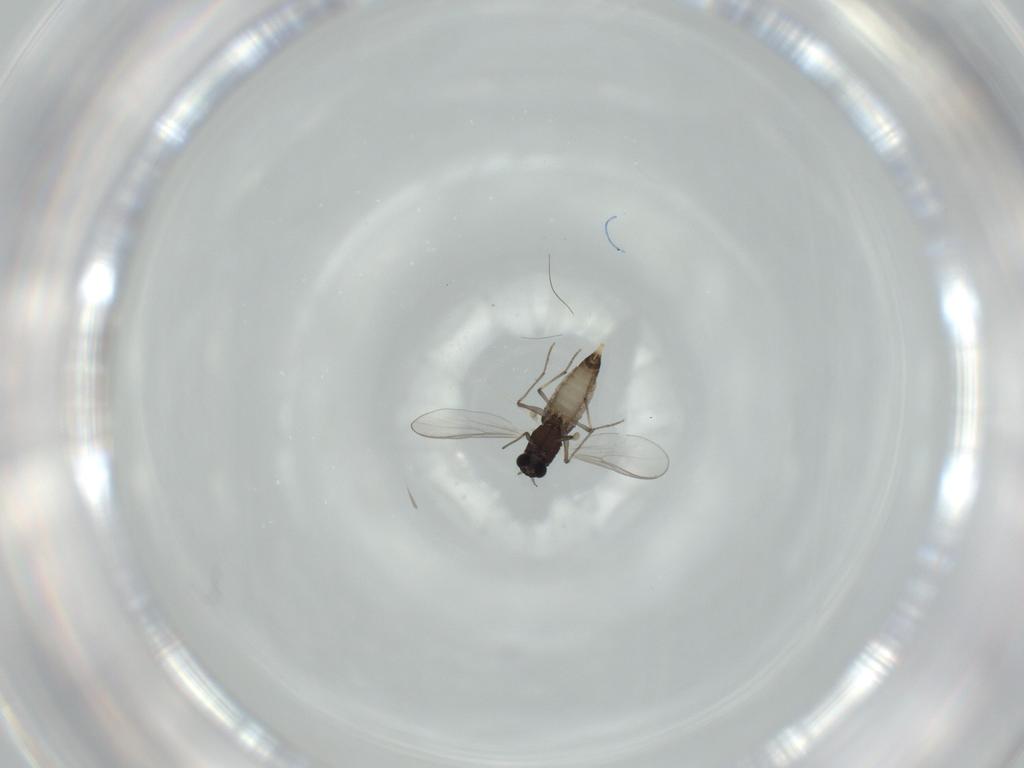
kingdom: Animalia
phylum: Arthropoda
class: Insecta
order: Diptera
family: Chironomidae
